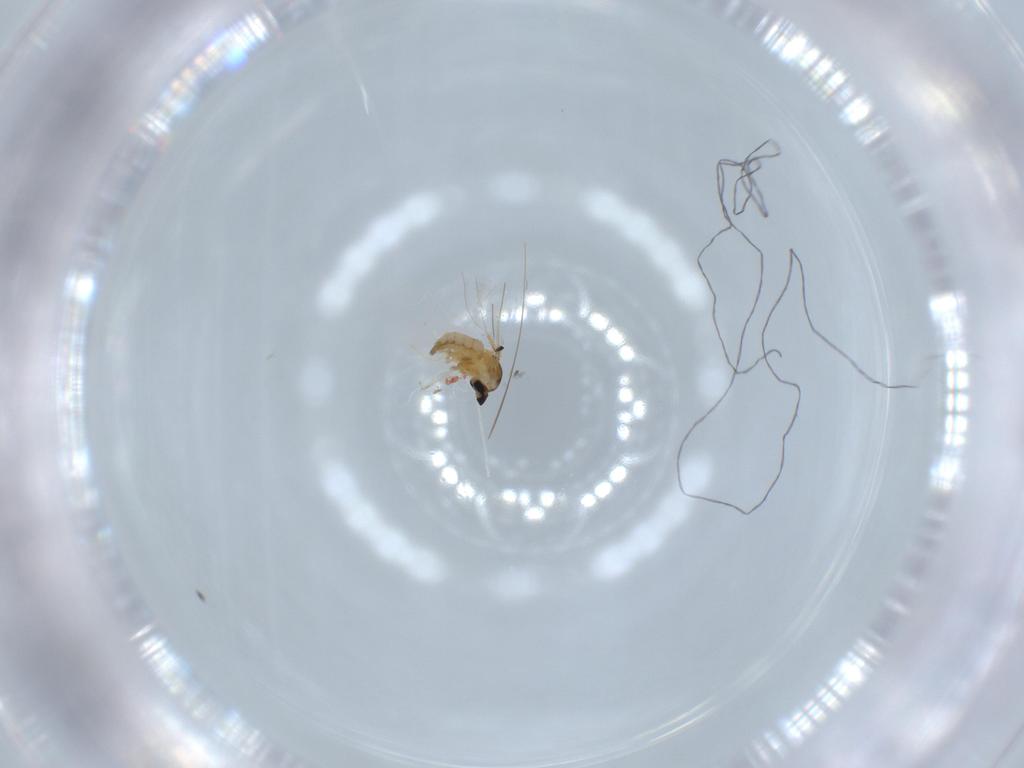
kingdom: Animalia
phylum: Arthropoda
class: Insecta
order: Diptera
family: Cecidomyiidae
